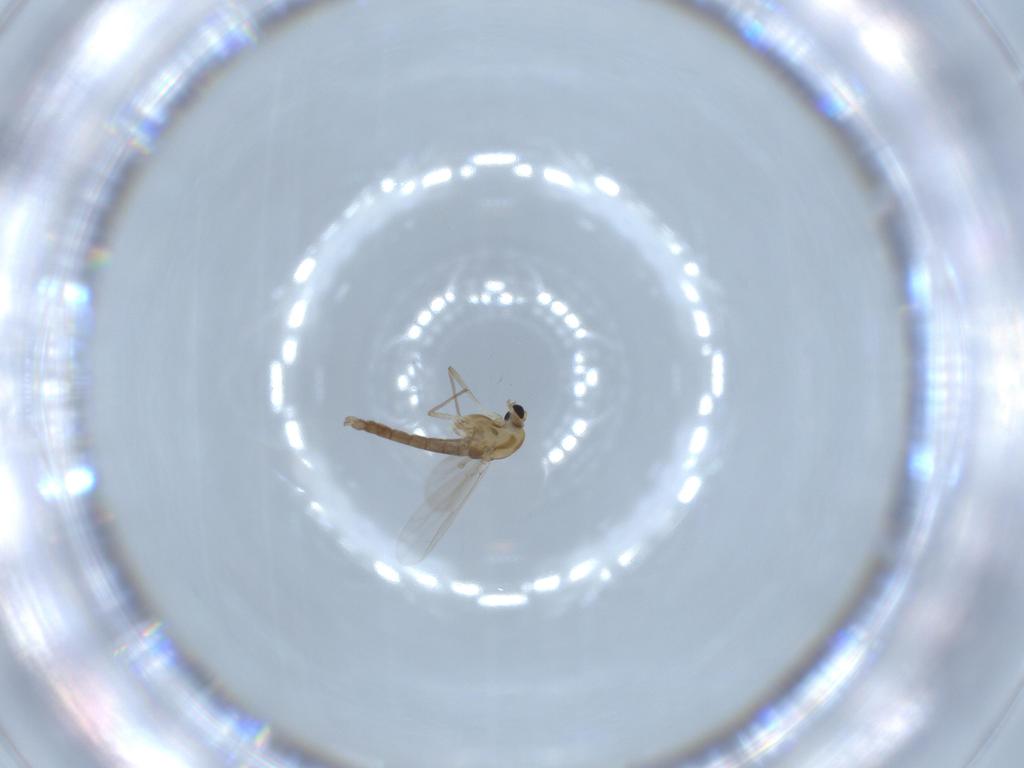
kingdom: Animalia
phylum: Arthropoda
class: Insecta
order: Diptera
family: Chironomidae
